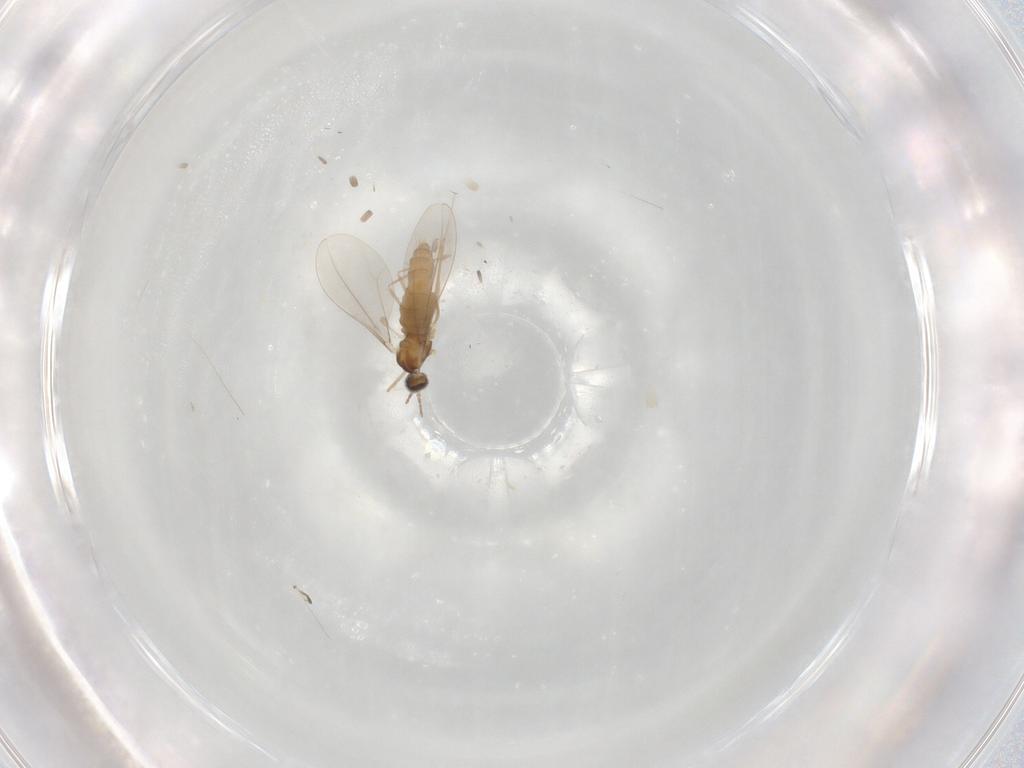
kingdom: Animalia
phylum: Arthropoda
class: Insecta
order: Diptera
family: Cecidomyiidae
